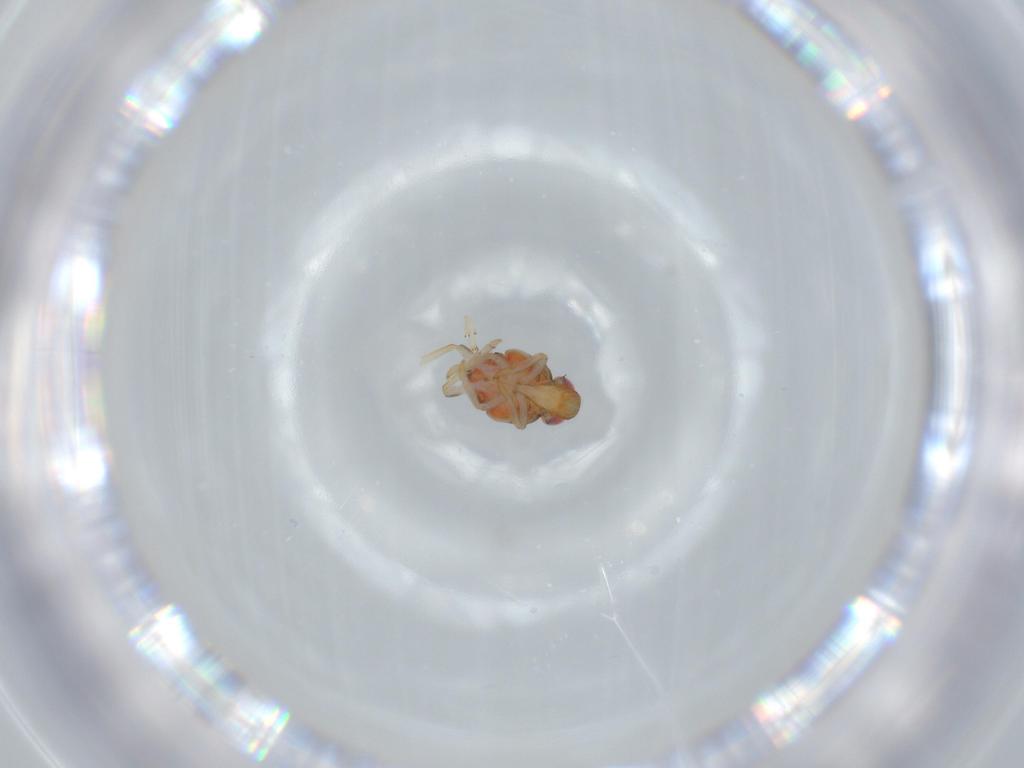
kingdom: Animalia
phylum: Arthropoda
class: Insecta
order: Hemiptera
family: Issidae
